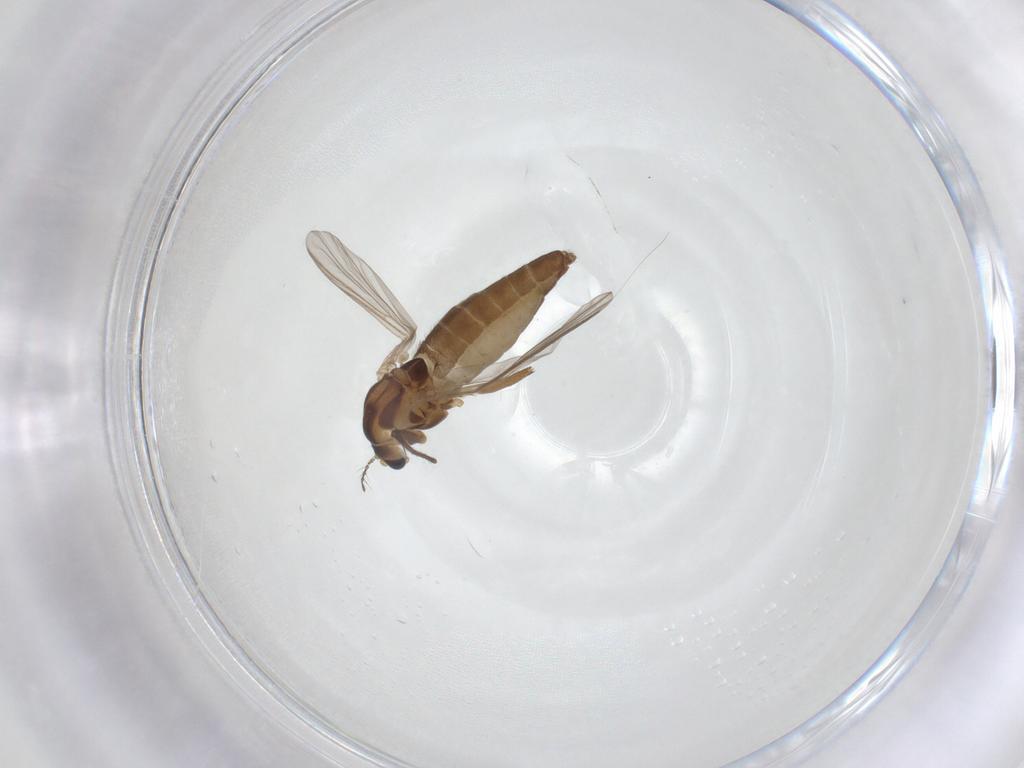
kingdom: Animalia
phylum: Arthropoda
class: Insecta
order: Diptera
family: Chironomidae
